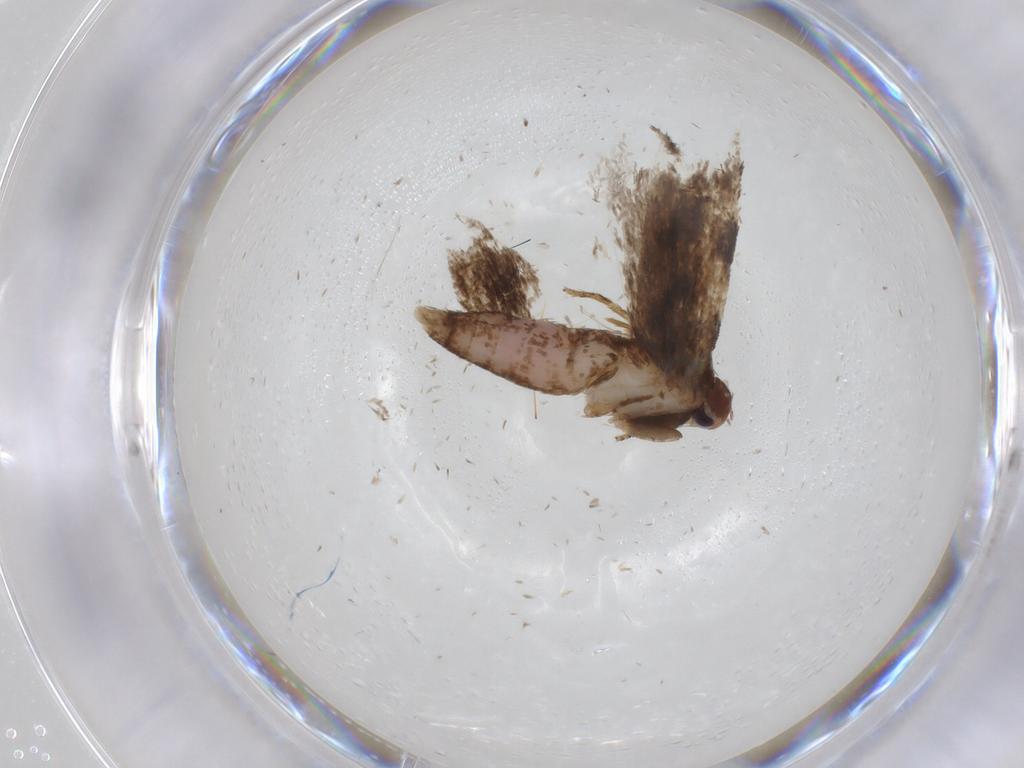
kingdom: Animalia
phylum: Arthropoda
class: Insecta
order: Lepidoptera
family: Gelechiidae
